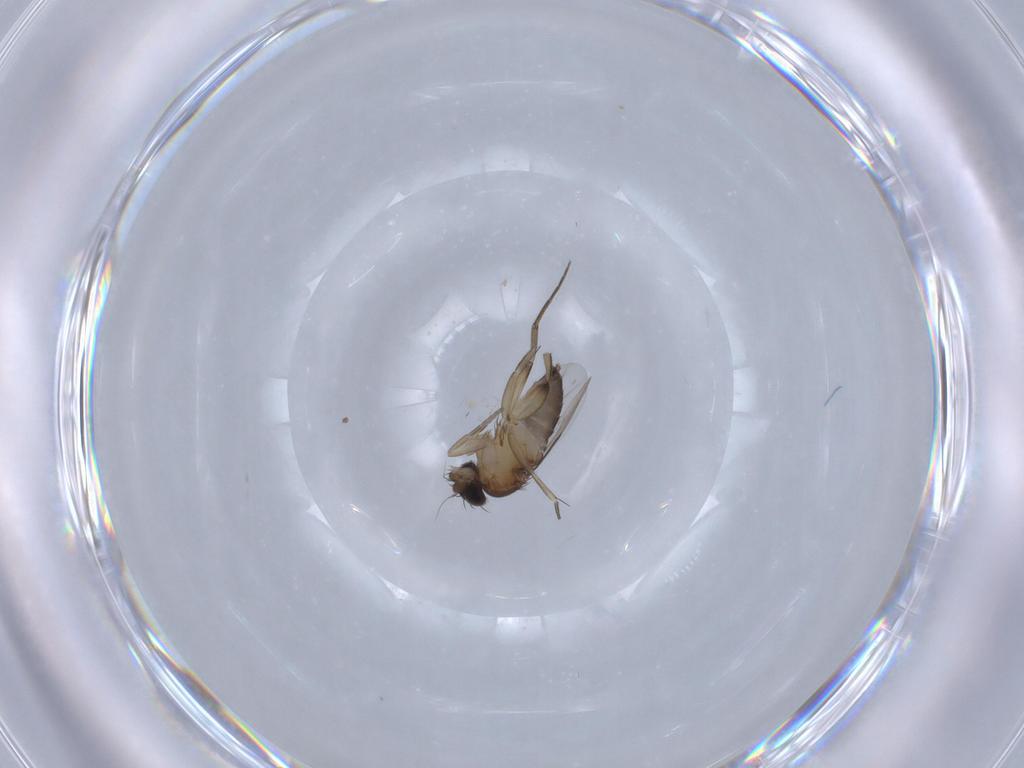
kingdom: Animalia
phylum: Arthropoda
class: Insecta
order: Diptera
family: Phoridae
